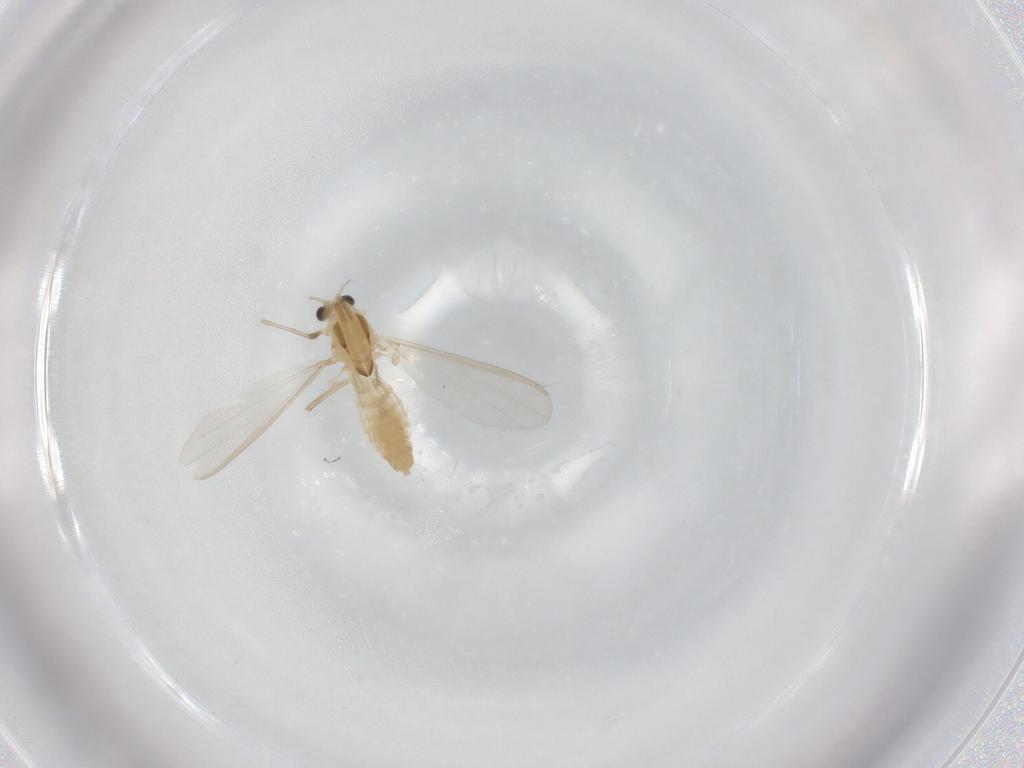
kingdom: Animalia
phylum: Arthropoda
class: Insecta
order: Diptera
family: Chironomidae
